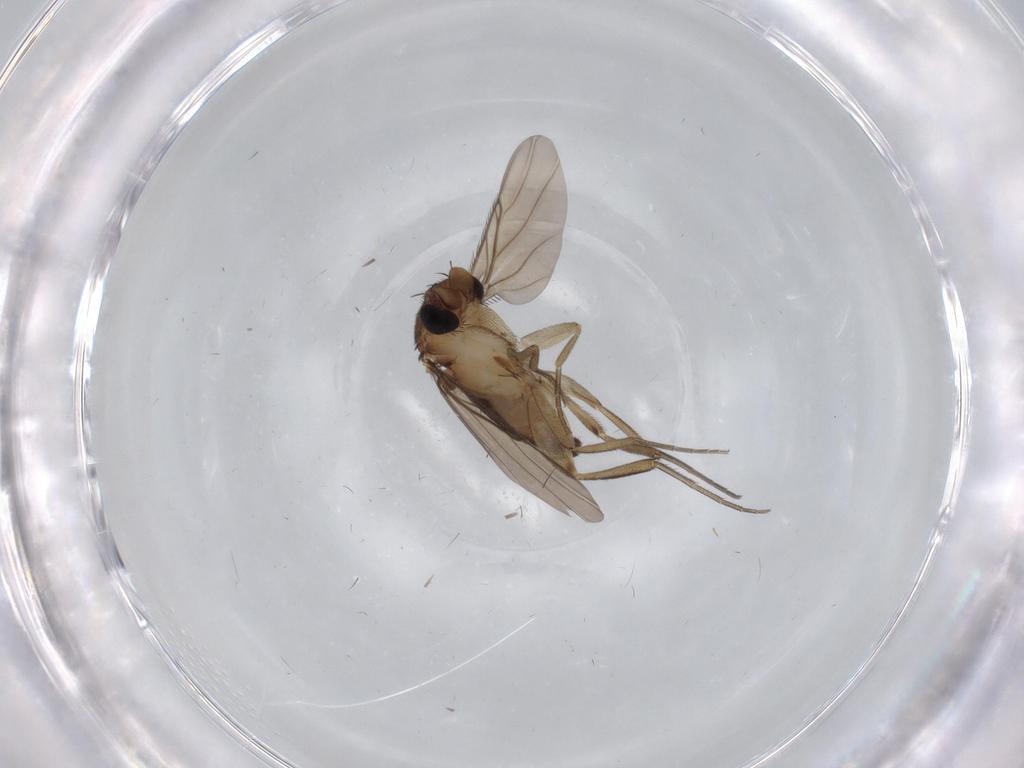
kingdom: Animalia
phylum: Arthropoda
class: Insecta
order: Diptera
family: Phoridae
